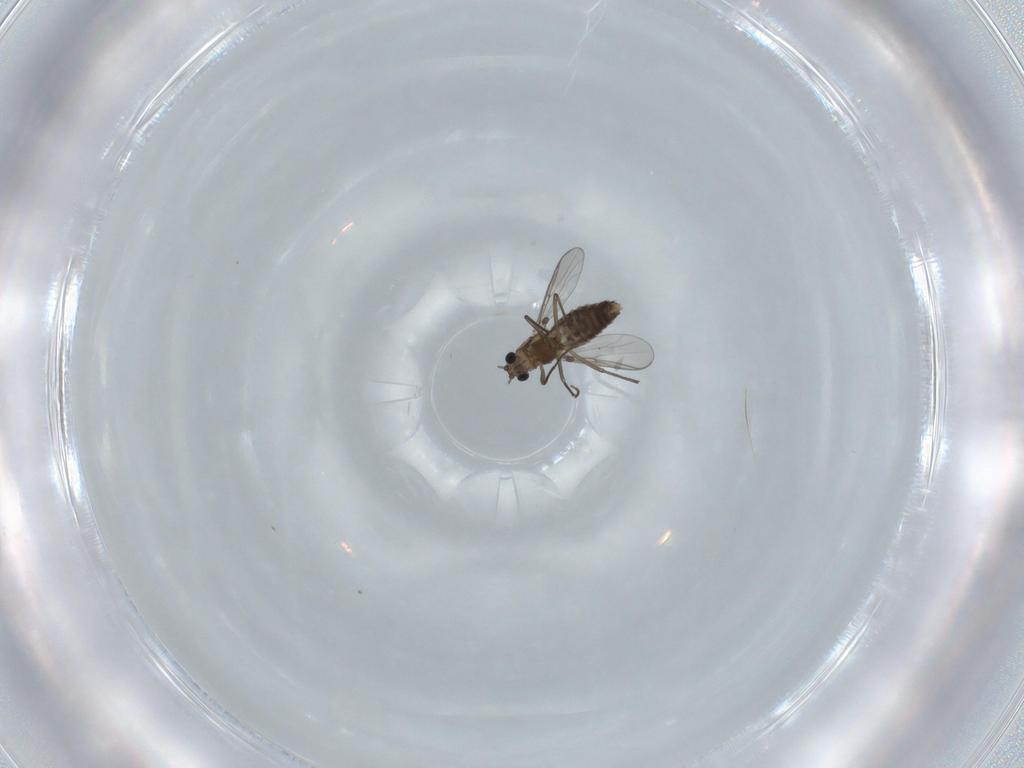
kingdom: Animalia
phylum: Arthropoda
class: Insecta
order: Diptera
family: Chironomidae
